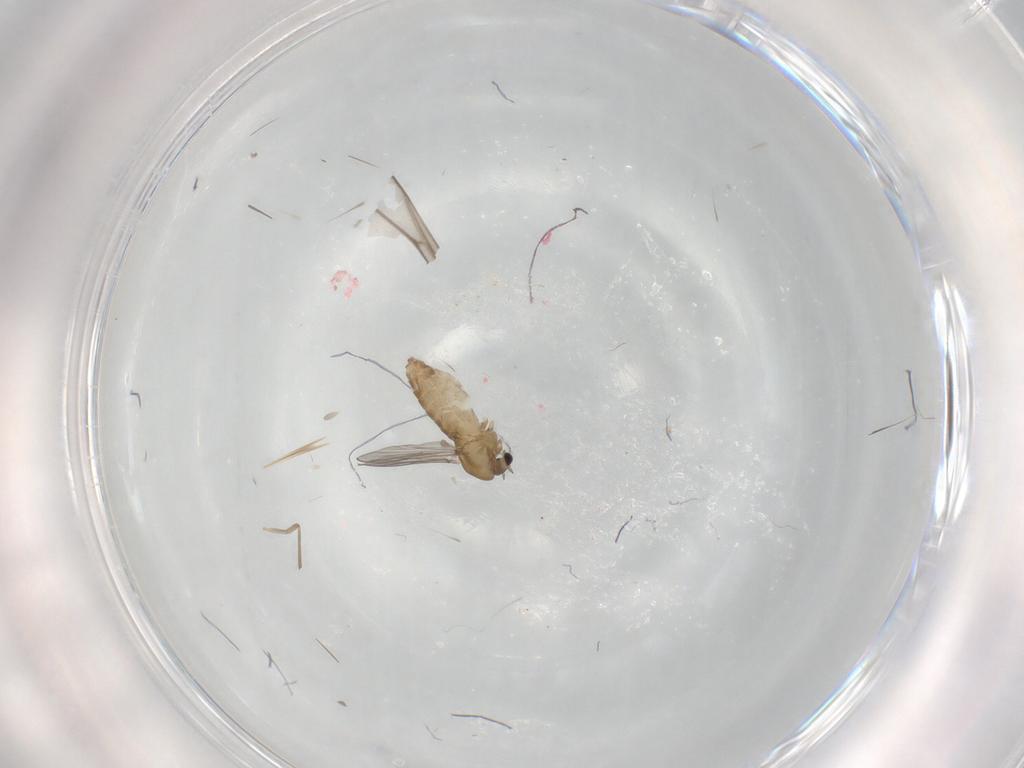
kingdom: Animalia
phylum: Arthropoda
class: Insecta
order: Diptera
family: Chironomidae
